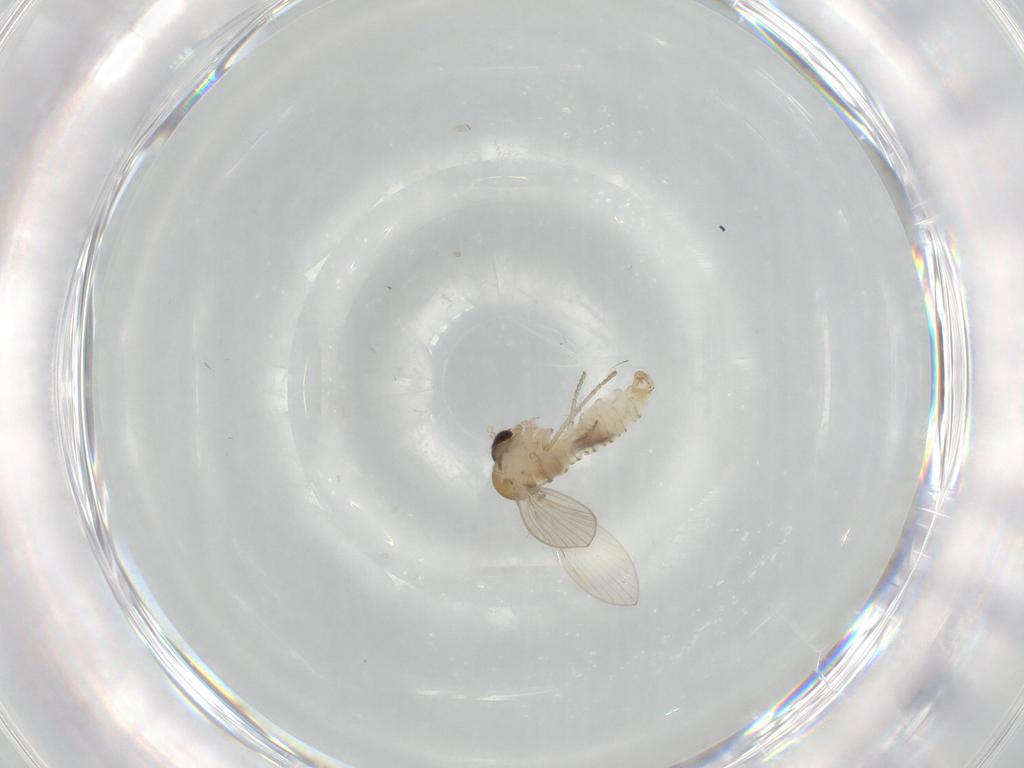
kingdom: Animalia
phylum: Arthropoda
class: Insecta
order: Diptera
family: Psychodidae
